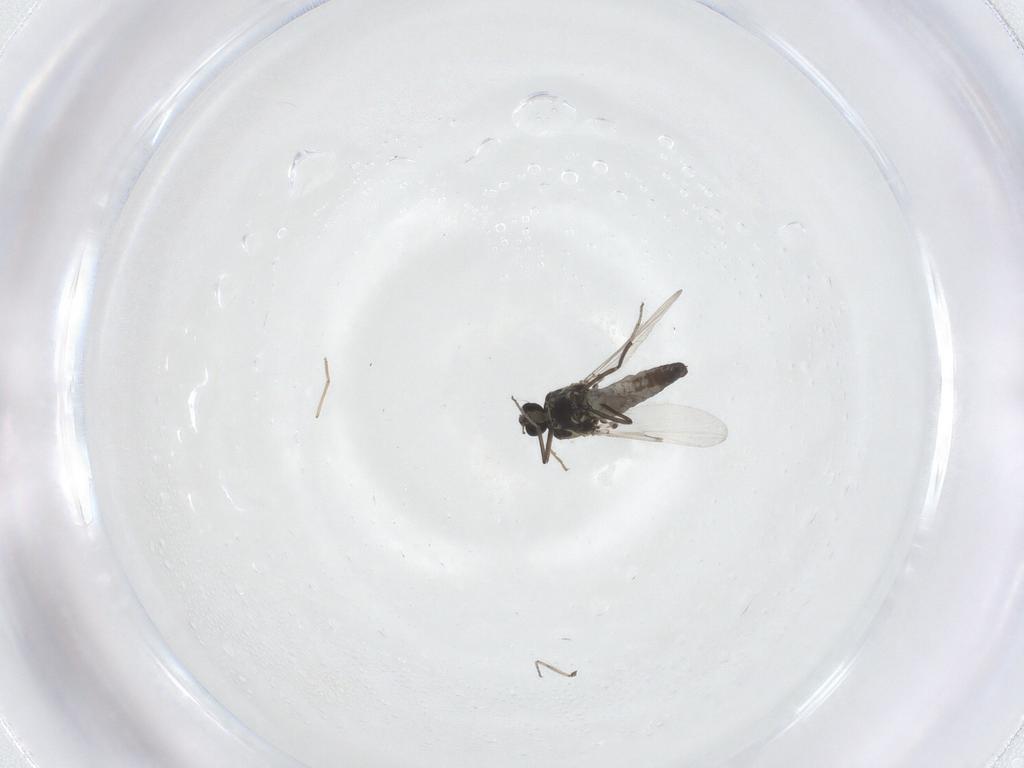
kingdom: Animalia
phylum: Arthropoda
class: Insecta
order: Diptera
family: Ceratopogonidae
